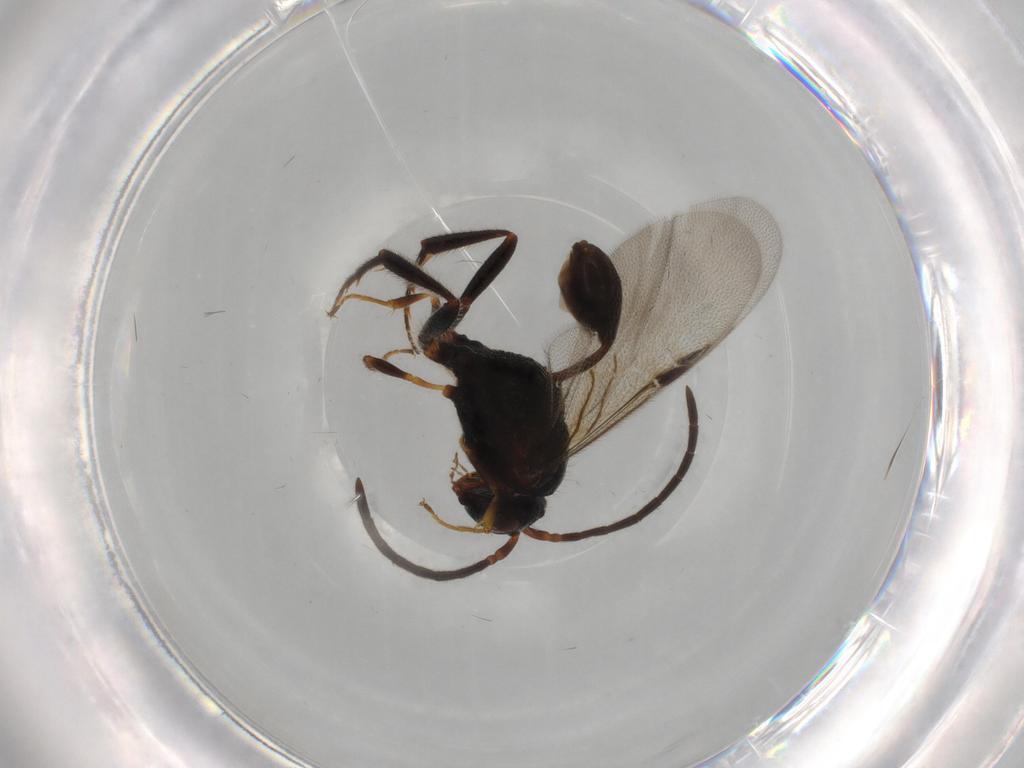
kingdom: Animalia
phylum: Arthropoda
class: Insecta
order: Hymenoptera
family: Evaniidae
